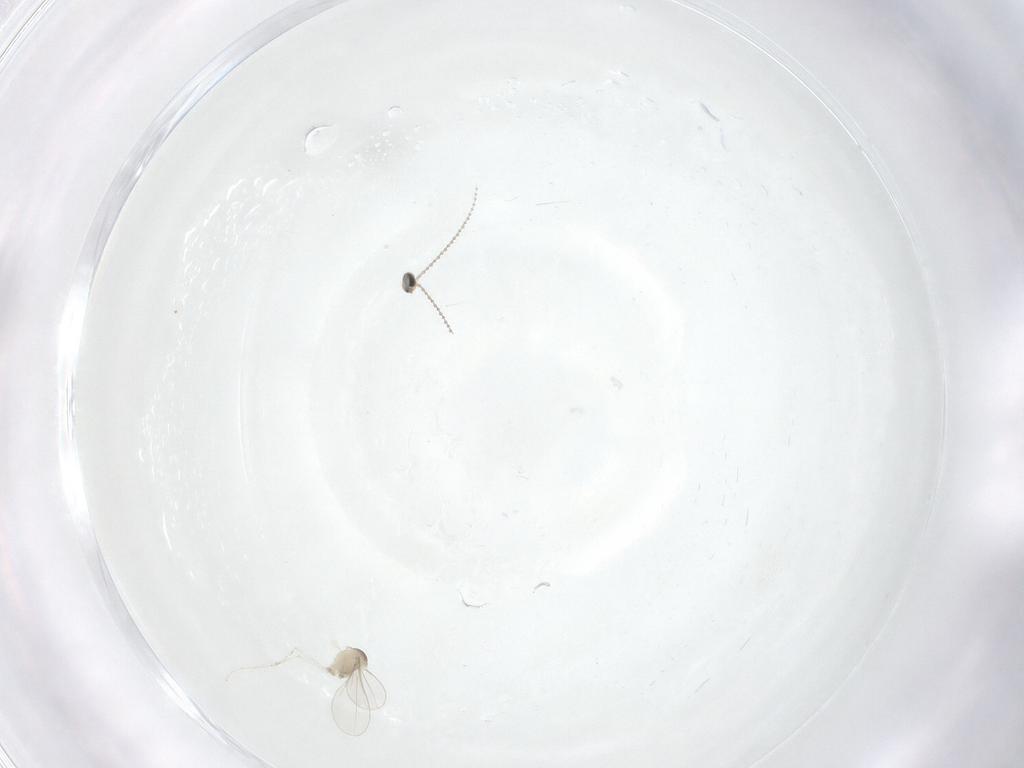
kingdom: Animalia
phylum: Arthropoda
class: Insecta
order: Diptera
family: Cecidomyiidae
